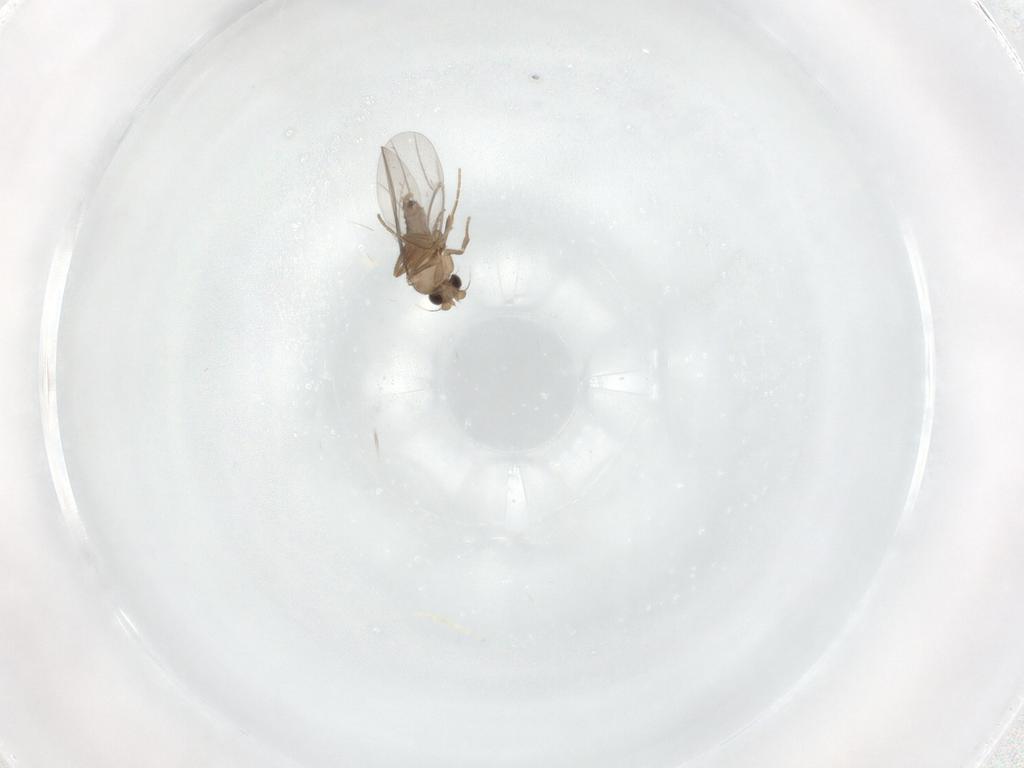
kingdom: Animalia
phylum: Arthropoda
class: Insecta
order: Diptera
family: Sarcophagidae
